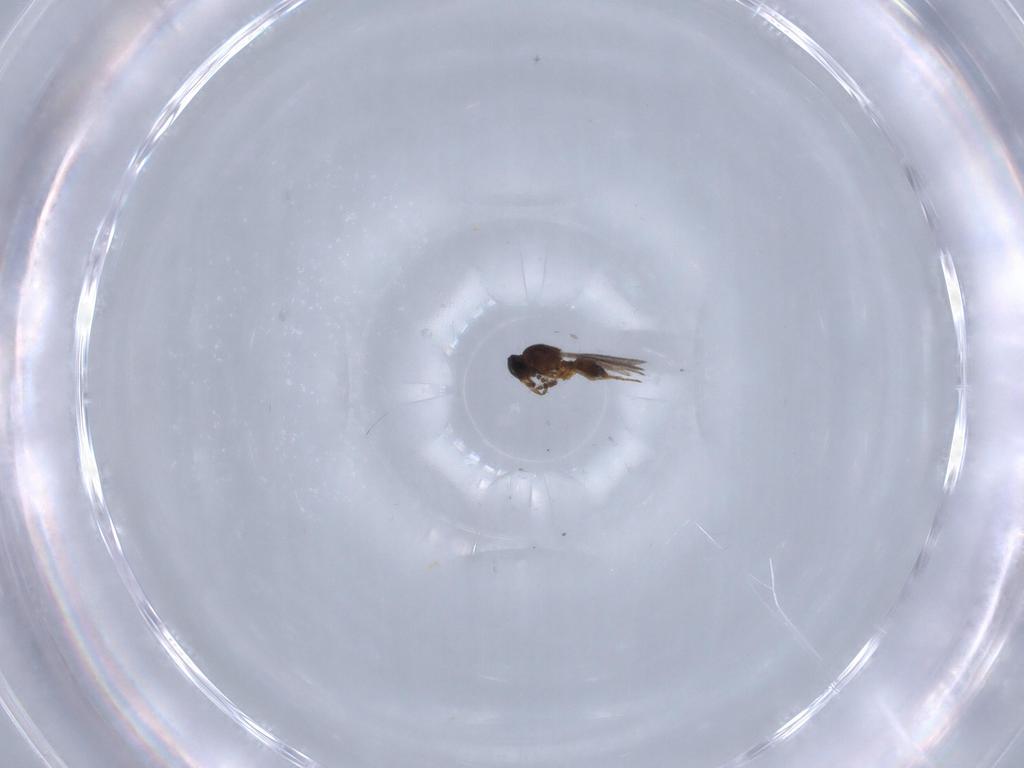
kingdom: Animalia
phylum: Arthropoda
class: Insecta
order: Hymenoptera
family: Platygastridae
